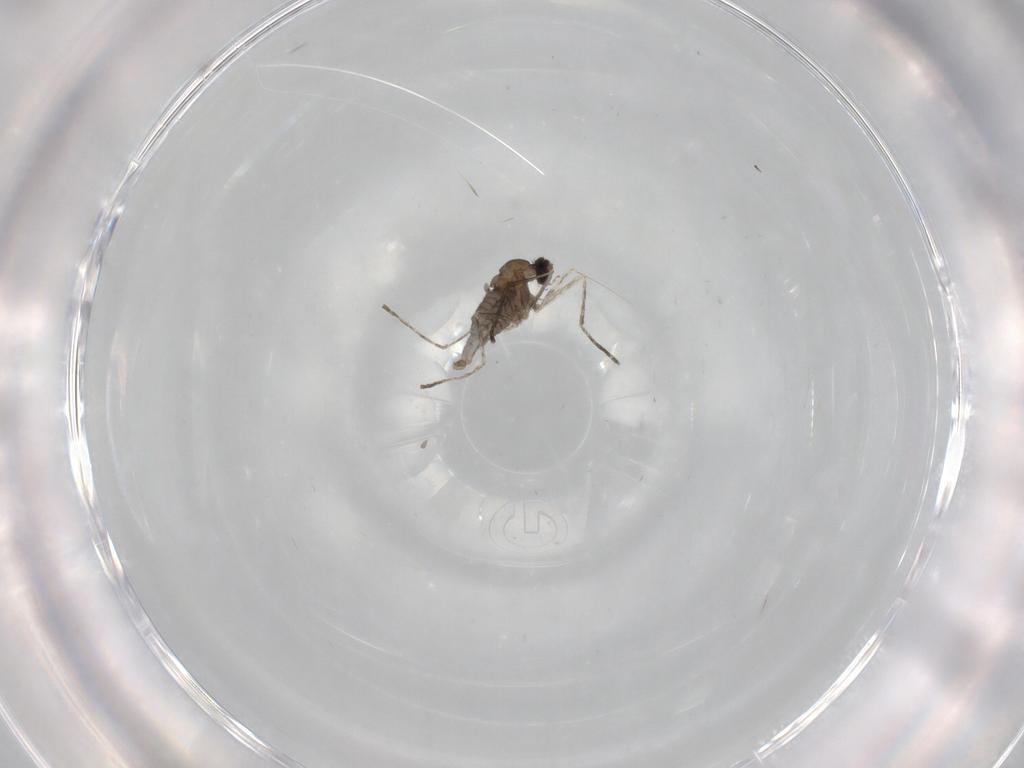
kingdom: Animalia
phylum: Arthropoda
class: Insecta
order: Diptera
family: Cecidomyiidae
